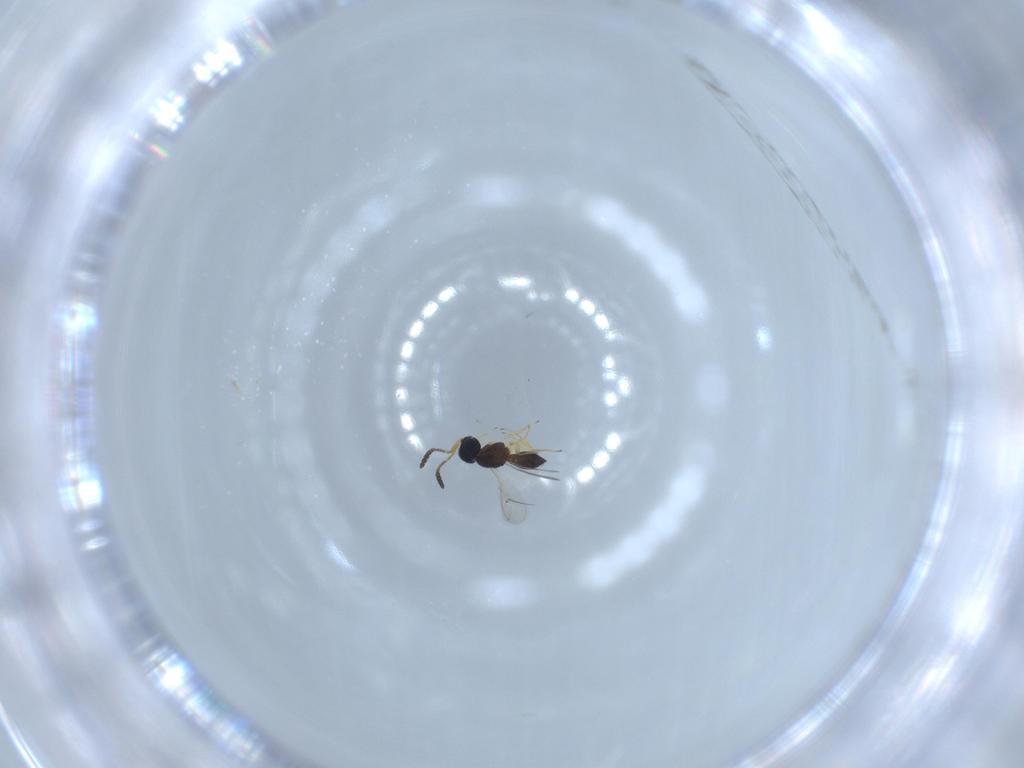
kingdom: Animalia
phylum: Arthropoda
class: Insecta
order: Hymenoptera
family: Scelionidae
